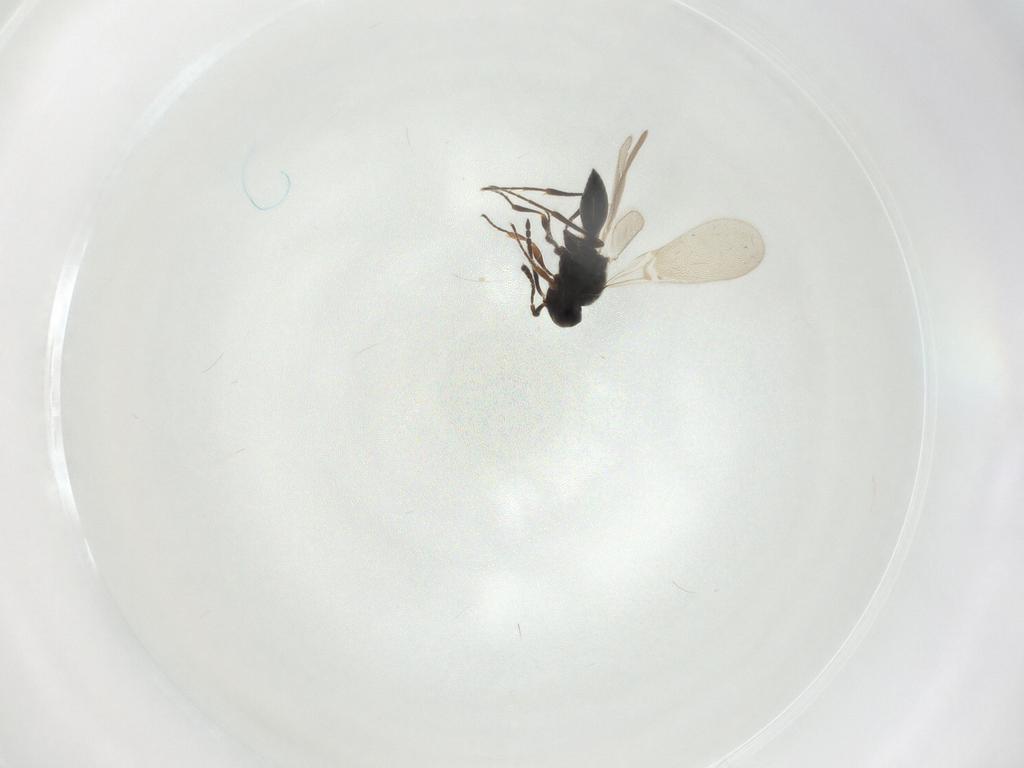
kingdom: Animalia
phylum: Arthropoda
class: Insecta
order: Hymenoptera
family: Platygastridae
